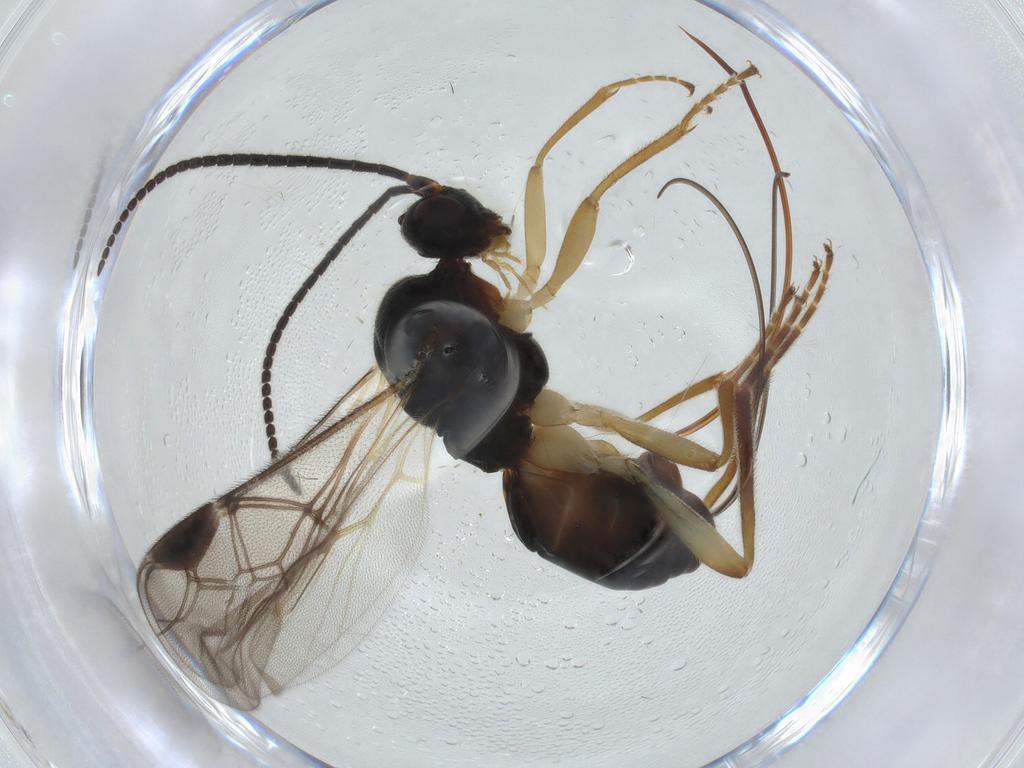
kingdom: Animalia
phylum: Arthropoda
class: Insecta
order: Hymenoptera
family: Braconidae
